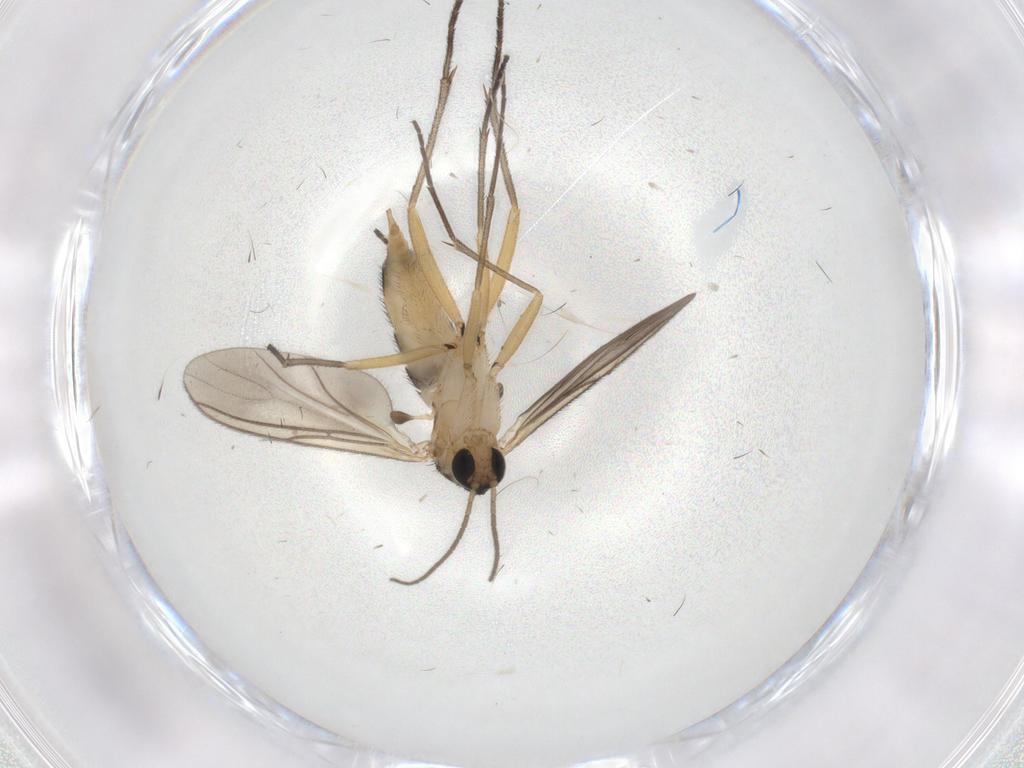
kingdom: Animalia
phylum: Arthropoda
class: Insecta
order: Diptera
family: Sciaridae
